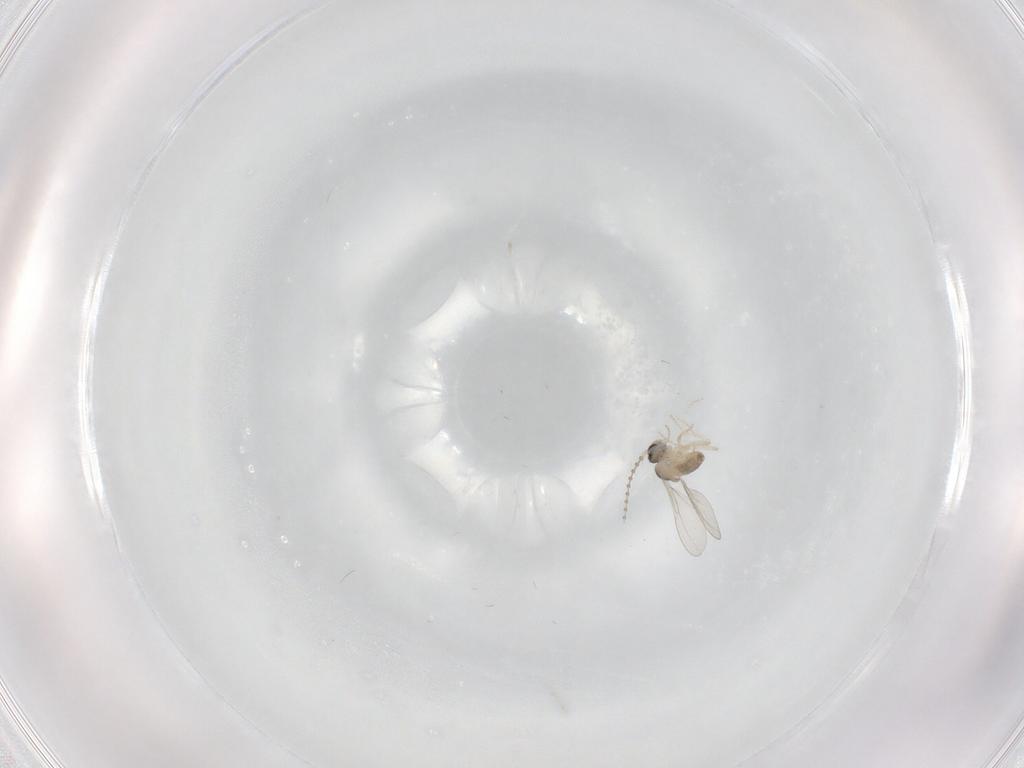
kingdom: Animalia
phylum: Arthropoda
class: Insecta
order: Diptera
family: Cecidomyiidae
